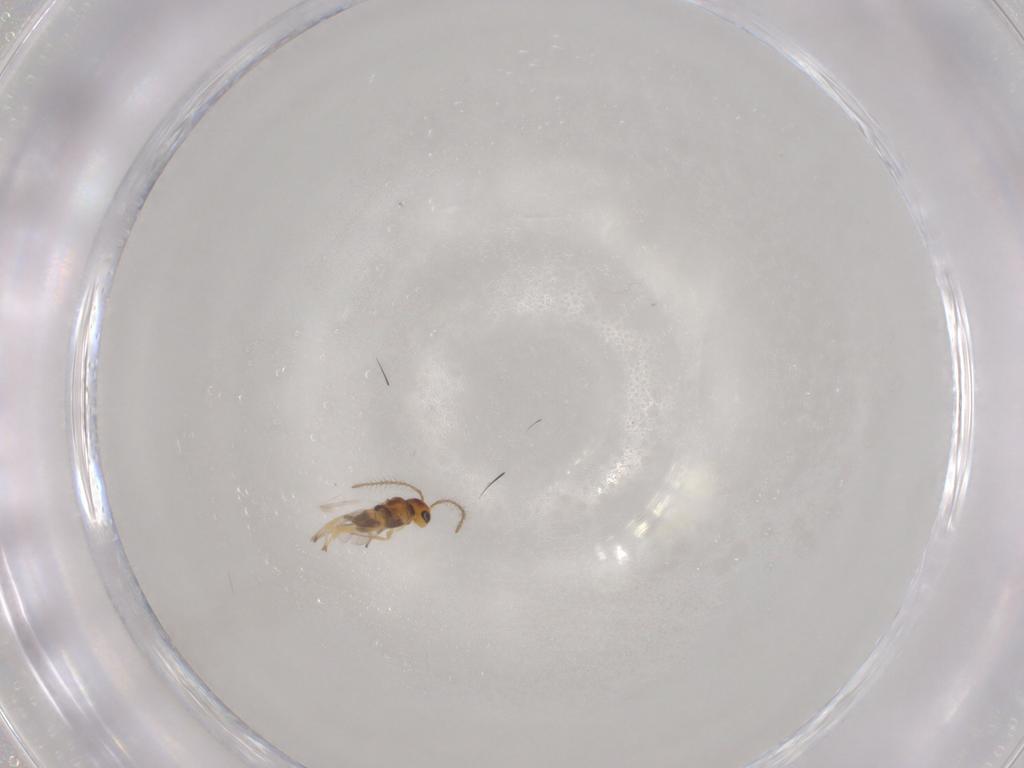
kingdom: Animalia
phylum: Arthropoda
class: Insecta
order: Hymenoptera
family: Encyrtidae
